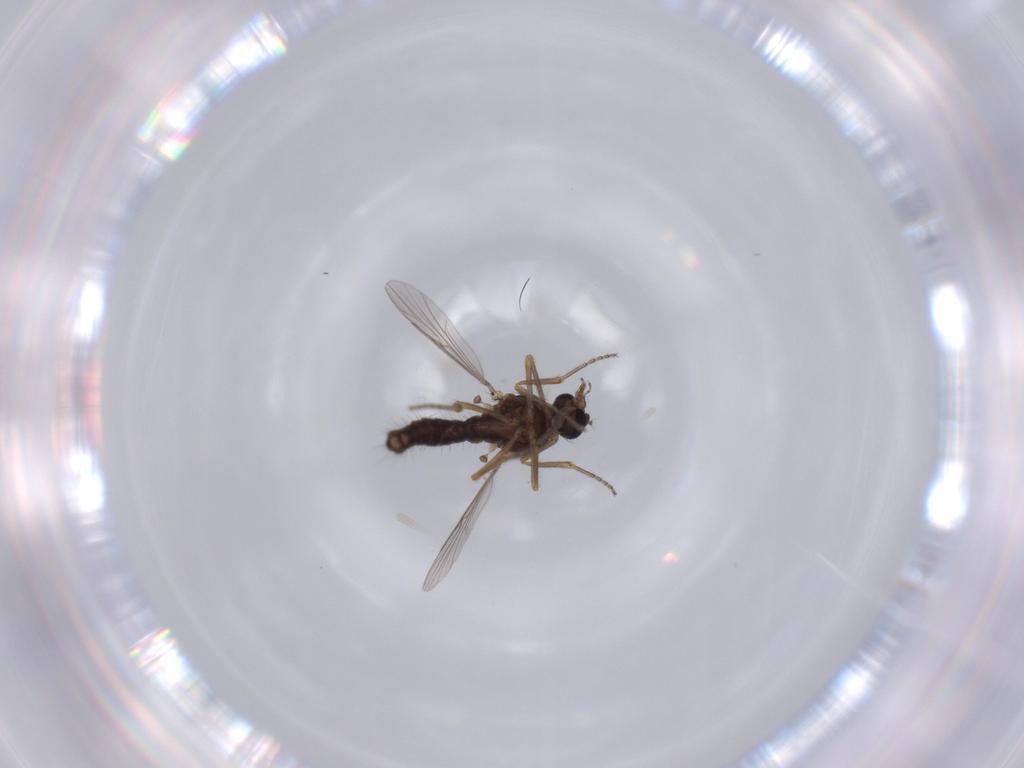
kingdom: Animalia
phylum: Arthropoda
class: Insecta
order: Diptera
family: Ceratopogonidae
